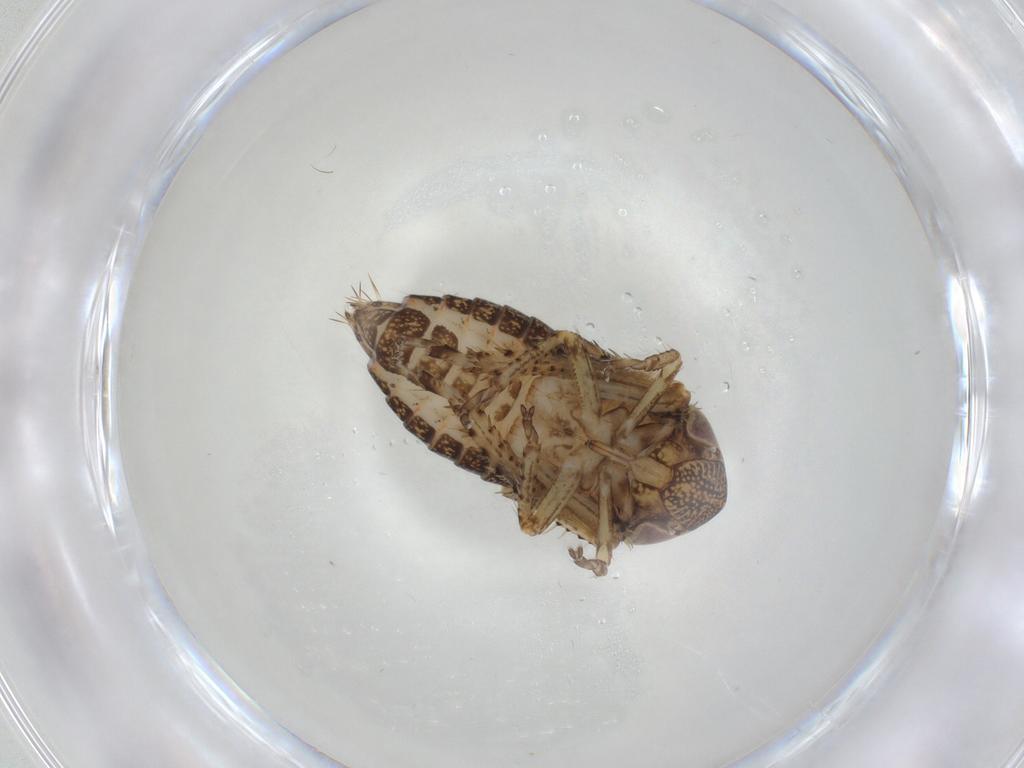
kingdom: Animalia
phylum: Arthropoda
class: Insecta
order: Hemiptera
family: Cicadellidae
